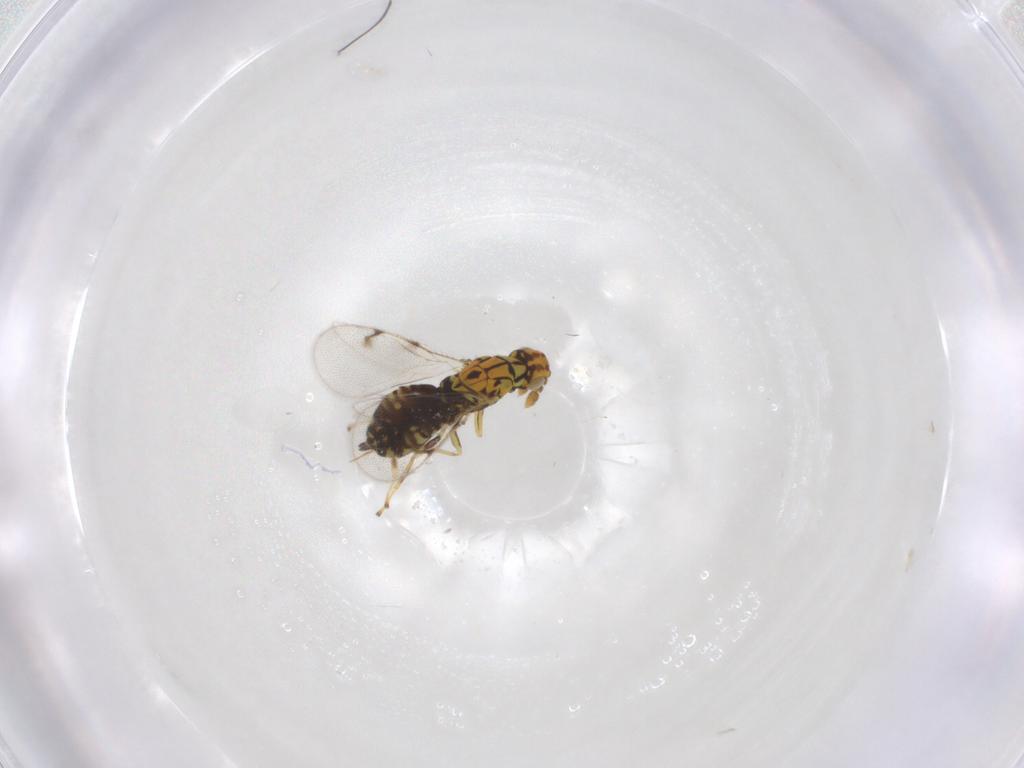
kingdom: Animalia
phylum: Arthropoda
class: Insecta
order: Hymenoptera
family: Eulophidae
